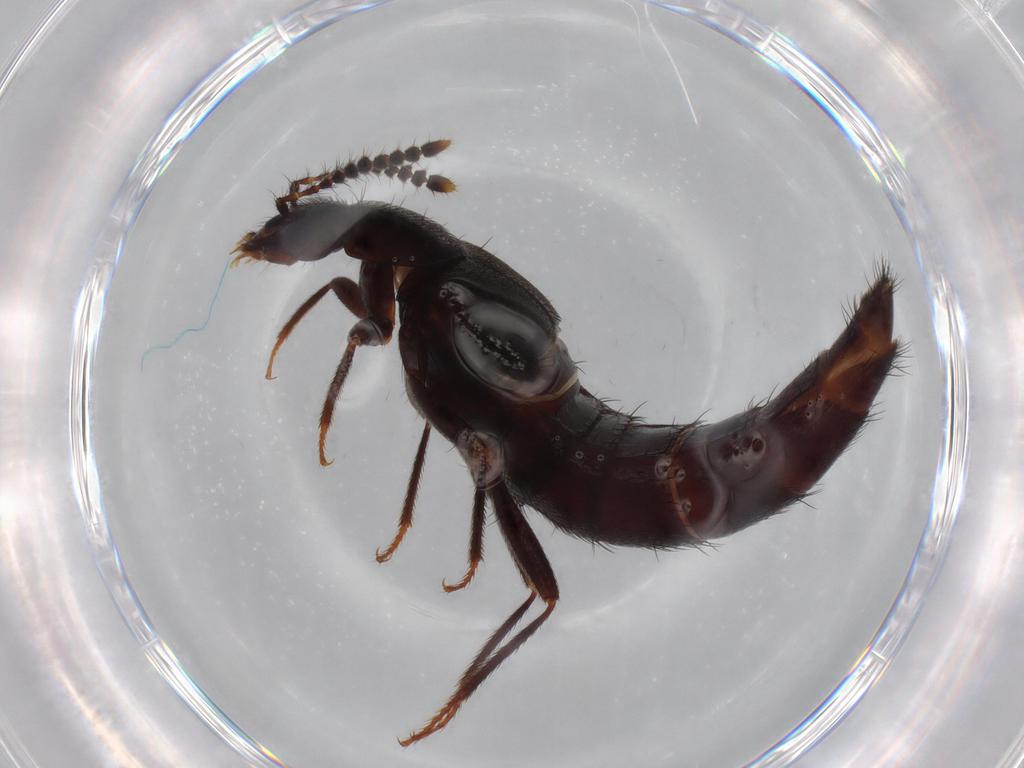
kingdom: Animalia
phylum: Arthropoda
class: Insecta
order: Coleoptera
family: Staphylinidae
